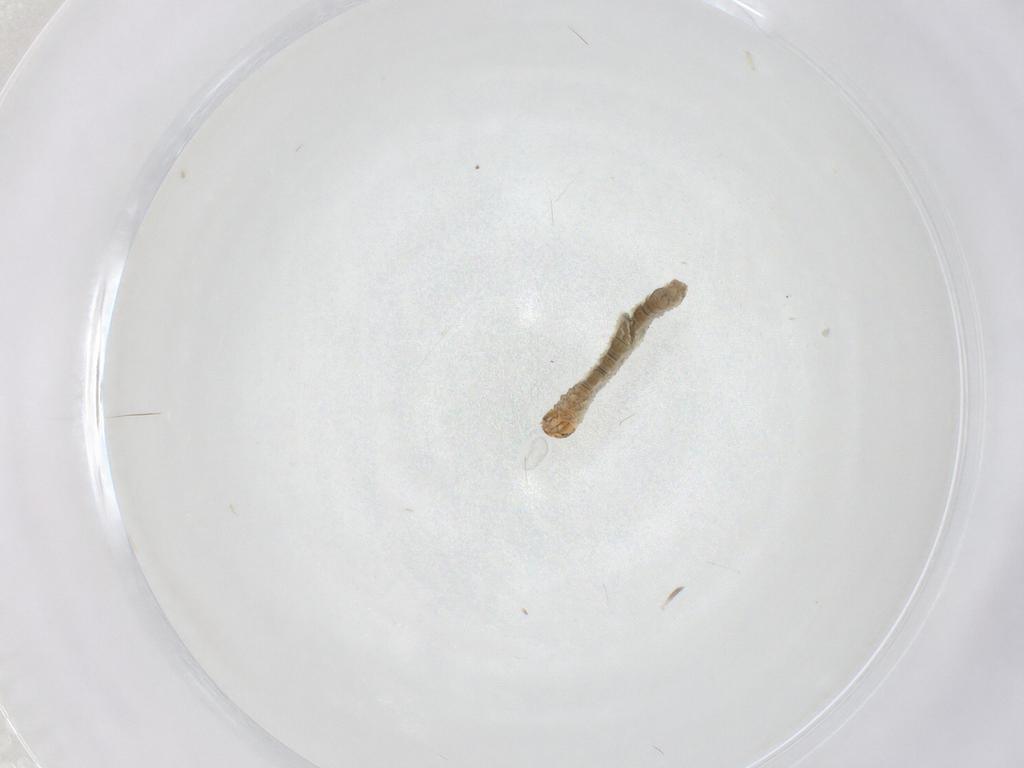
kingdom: Animalia
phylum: Arthropoda
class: Insecta
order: Lepidoptera
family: Geometridae
